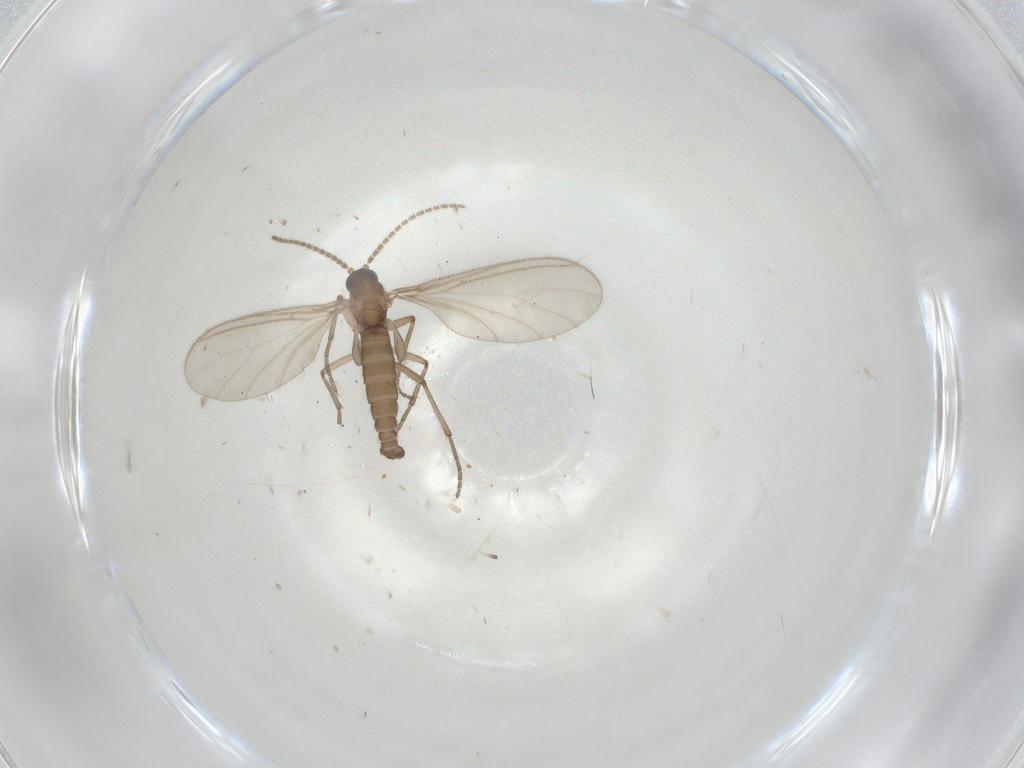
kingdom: Animalia
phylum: Arthropoda
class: Insecta
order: Diptera
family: Sciaridae
